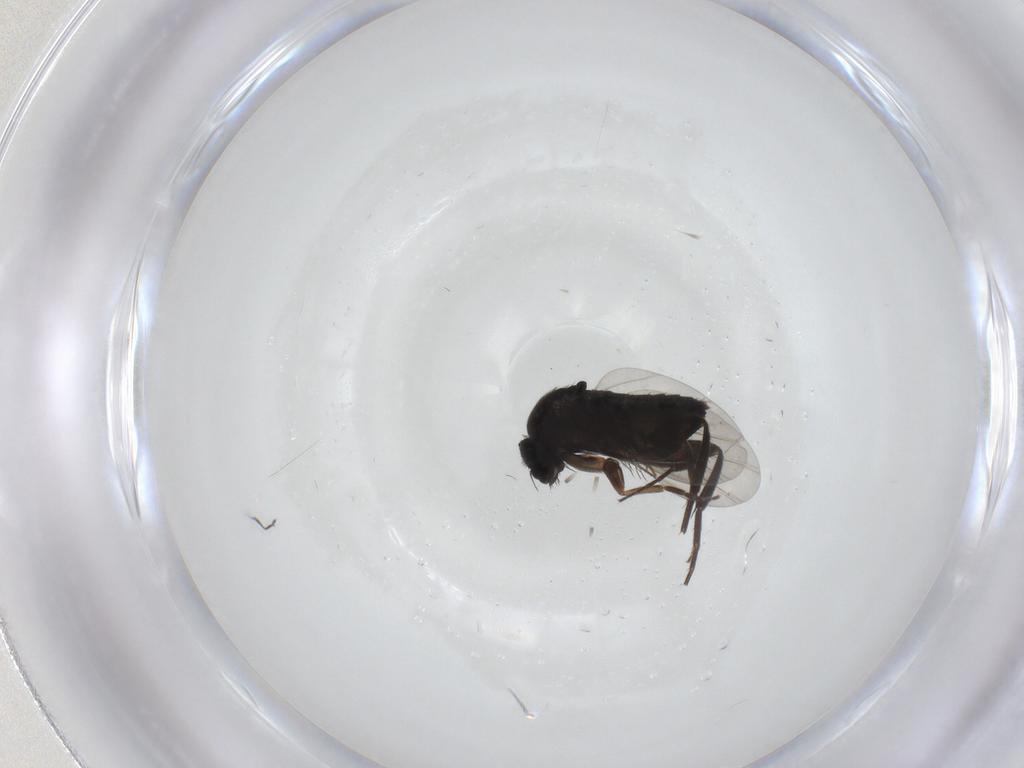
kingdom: Animalia
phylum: Arthropoda
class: Insecta
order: Diptera
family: Phoridae
